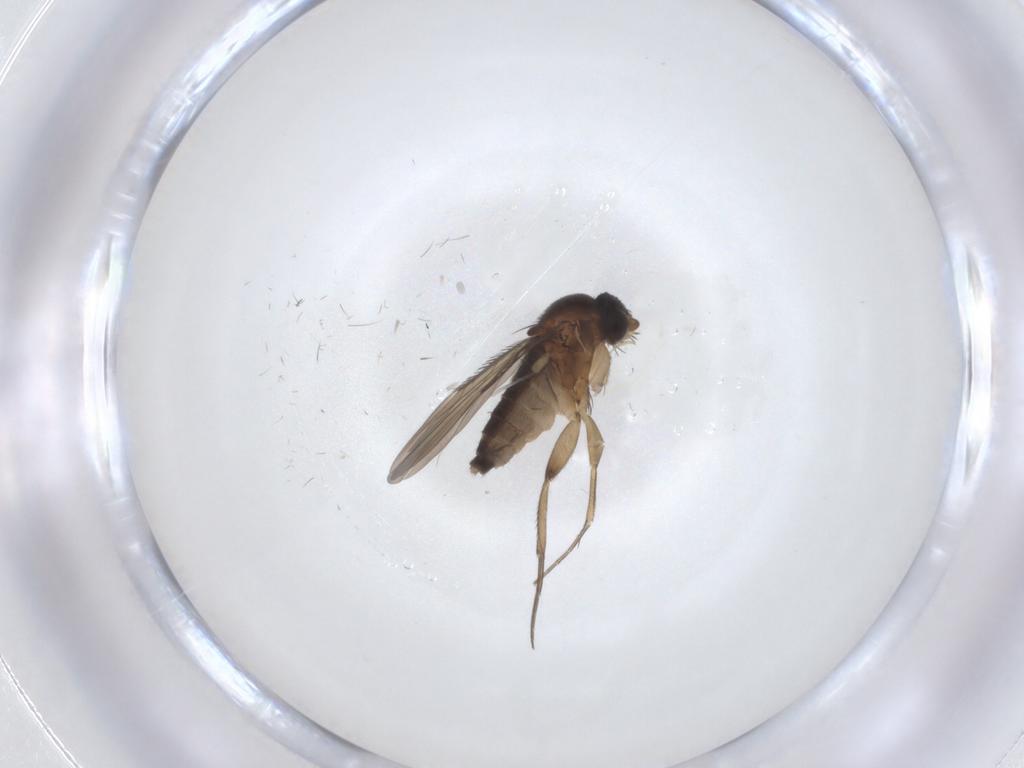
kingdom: Animalia
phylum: Arthropoda
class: Insecta
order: Diptera
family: Phoridae
